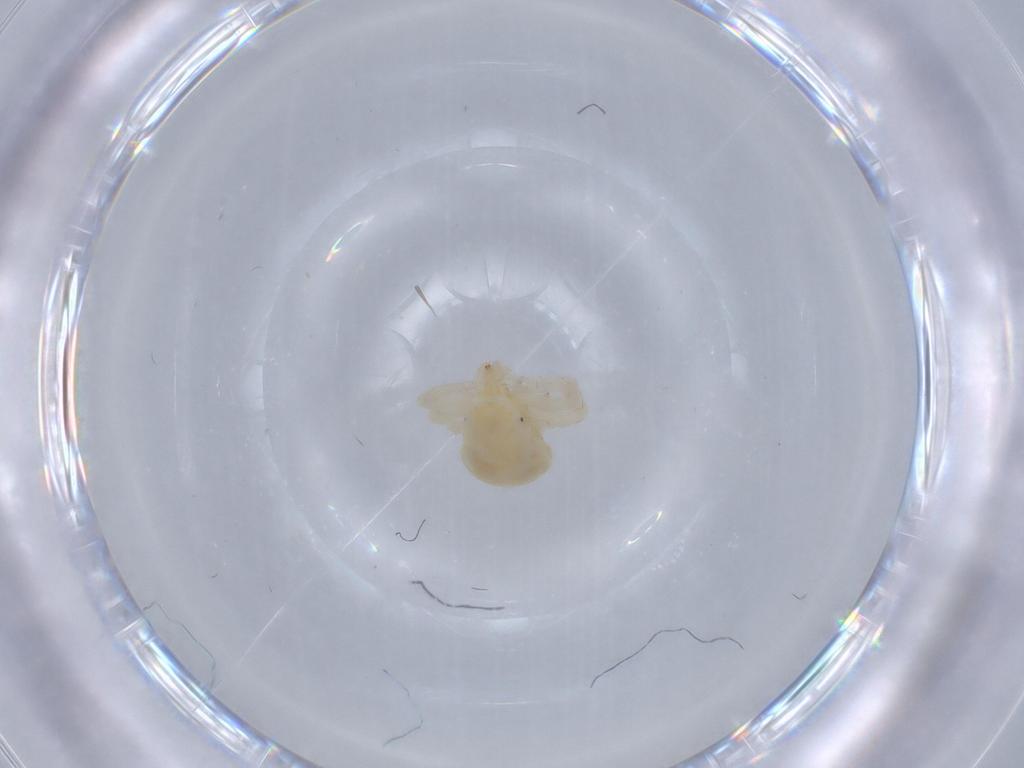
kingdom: Animalia
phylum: Arthropoda
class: Arachnida
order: Trombidiformes
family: Anystidae
